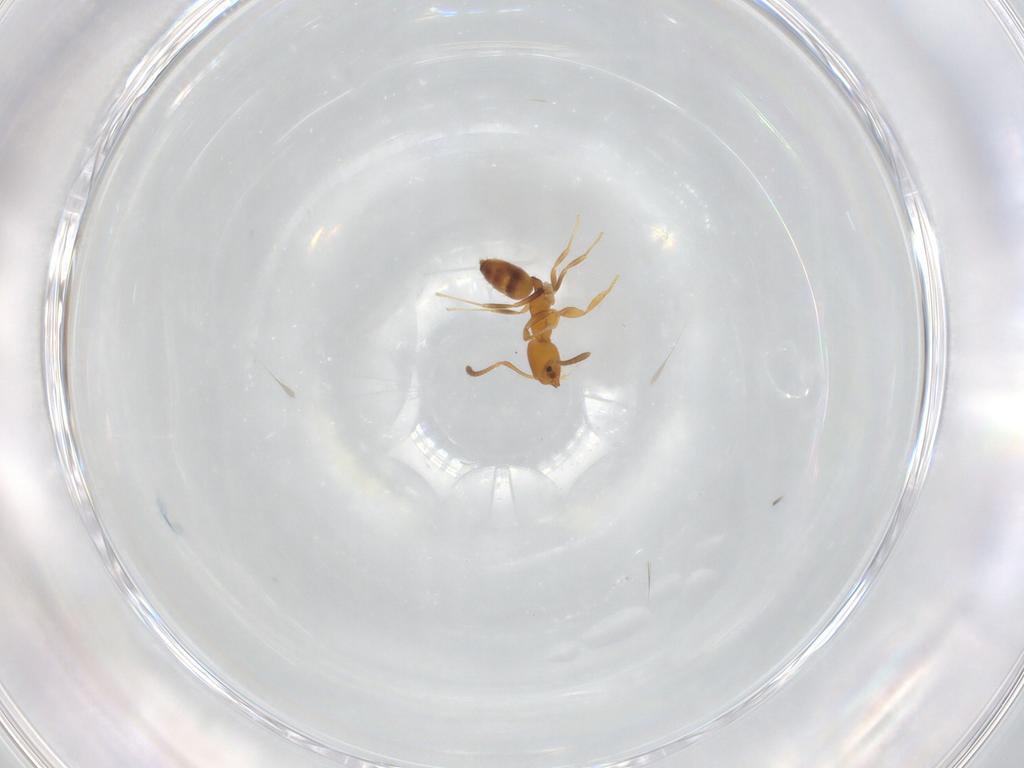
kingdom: Animalia
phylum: Arthropoda
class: Insecta
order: Hymenoptera
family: Formicidae
